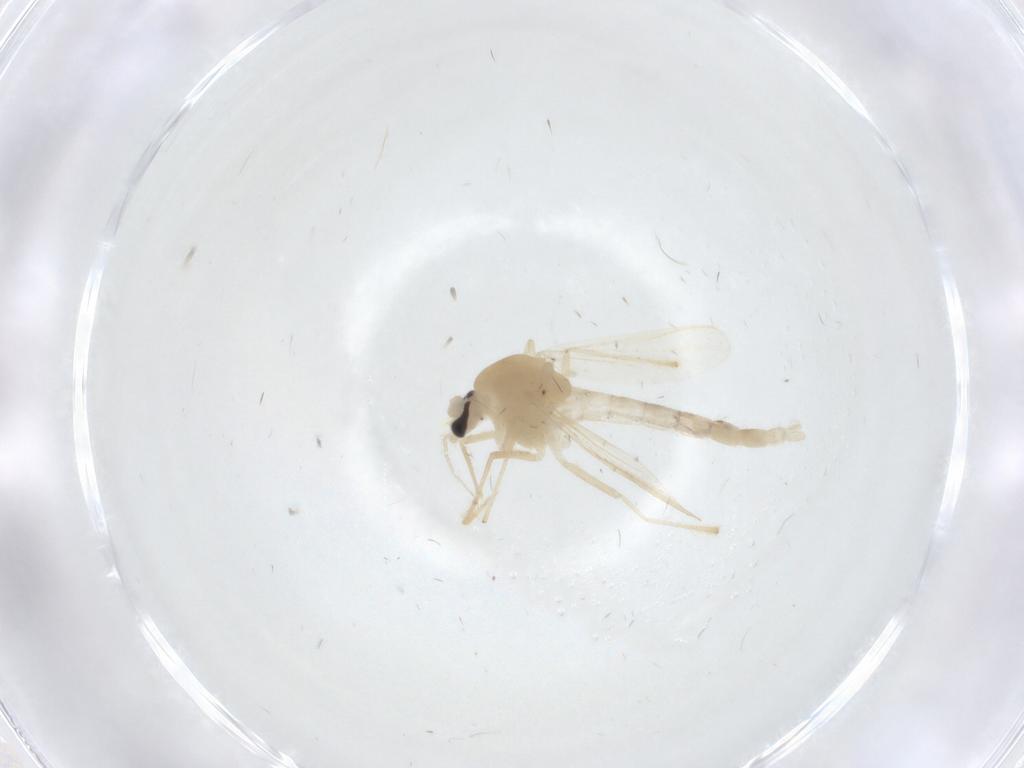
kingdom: Animalia
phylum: Arthropoda
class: Insecta
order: Diptera
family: Chironomidae
